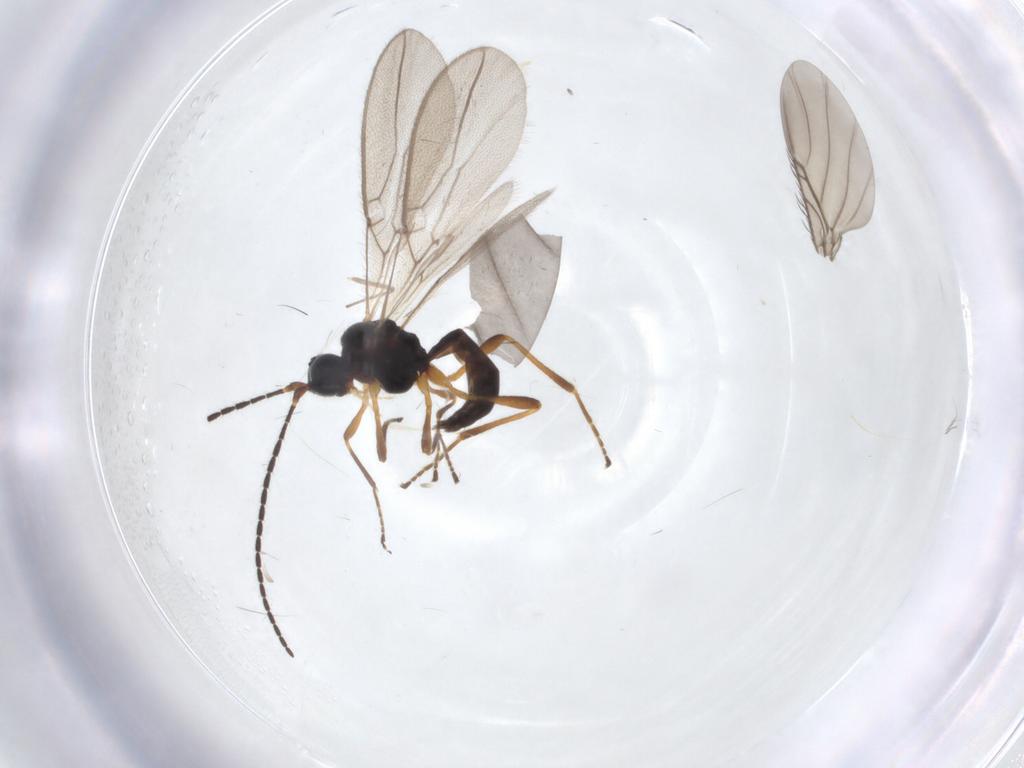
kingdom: Animalia
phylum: Arthropoda
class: Insecta
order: Hymenoptera
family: Braconidae
